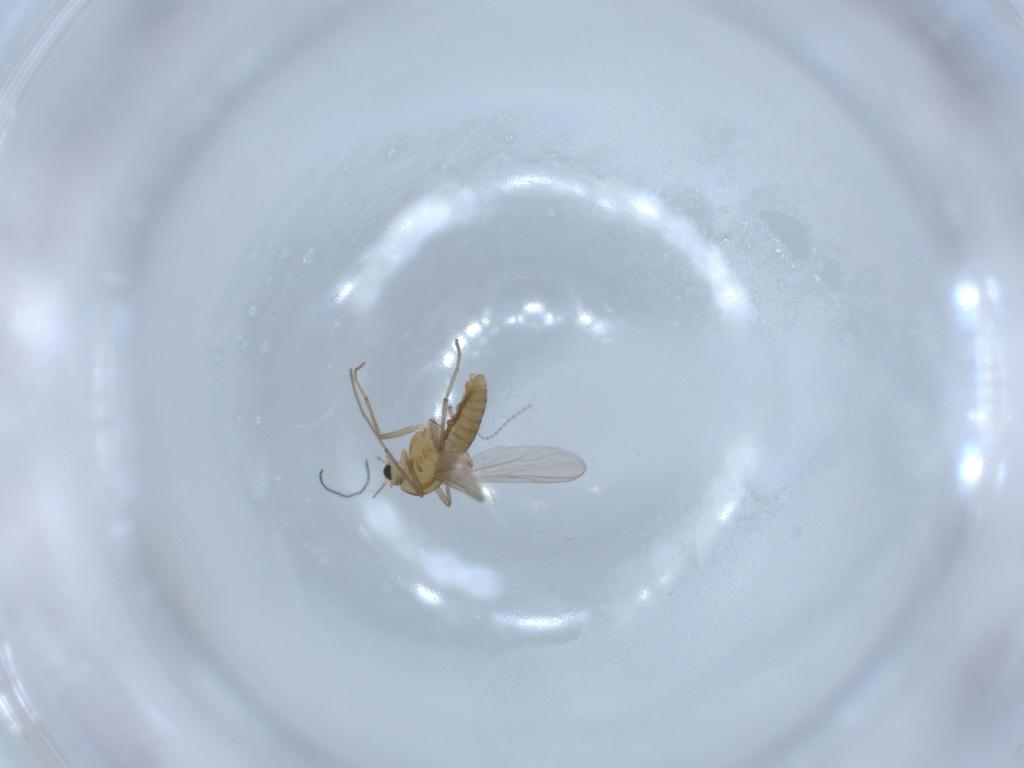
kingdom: Animalia
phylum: Arthropoda
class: Insecta
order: Diptera
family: Chironomidae
